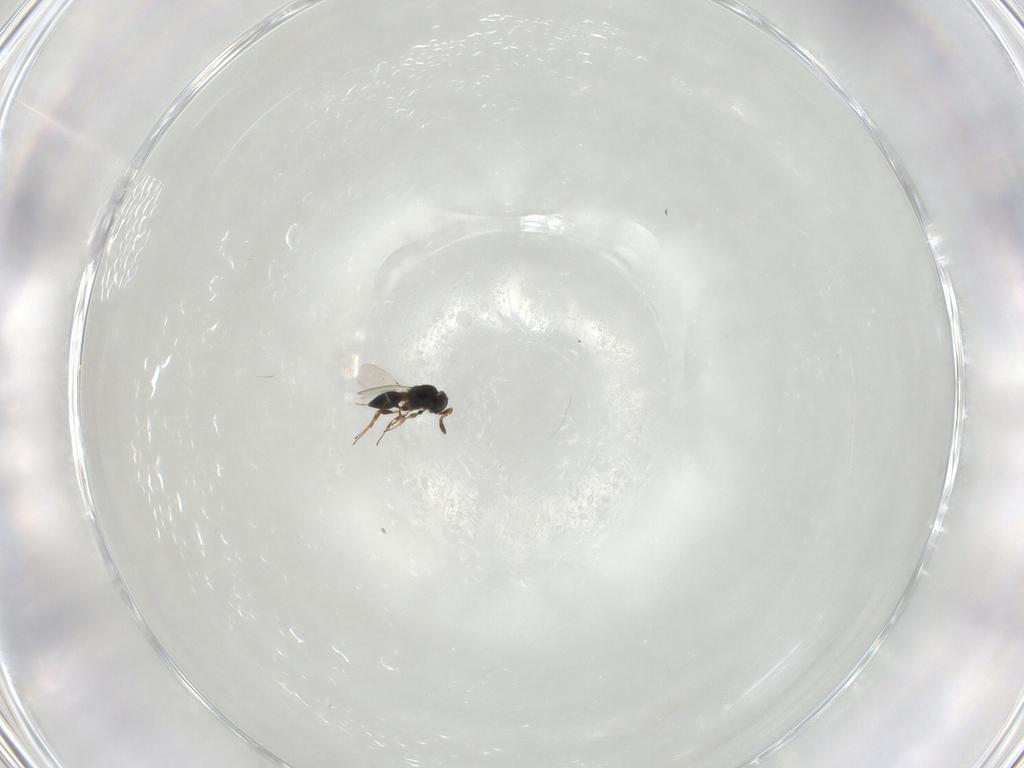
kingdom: Animalia
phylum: Arthropoda
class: Insecta
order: Hymenoptera
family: Platygastridae
